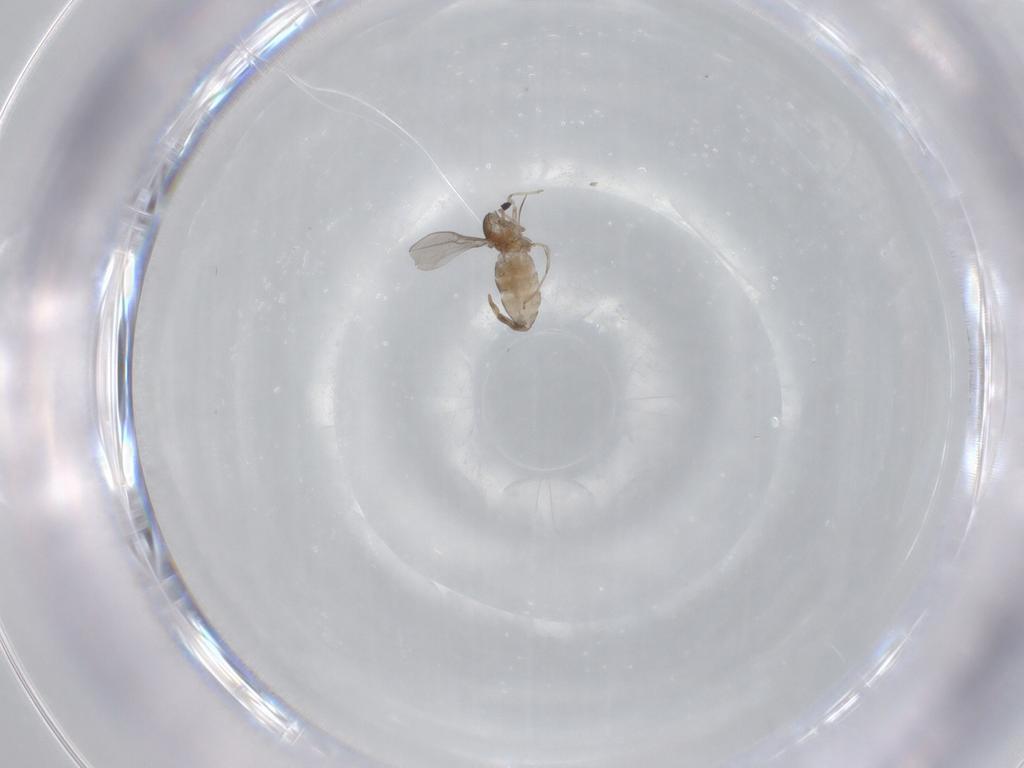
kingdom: Animalia
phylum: Arthropoda
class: Insecta
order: Diptera
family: Cecidomyiidae
